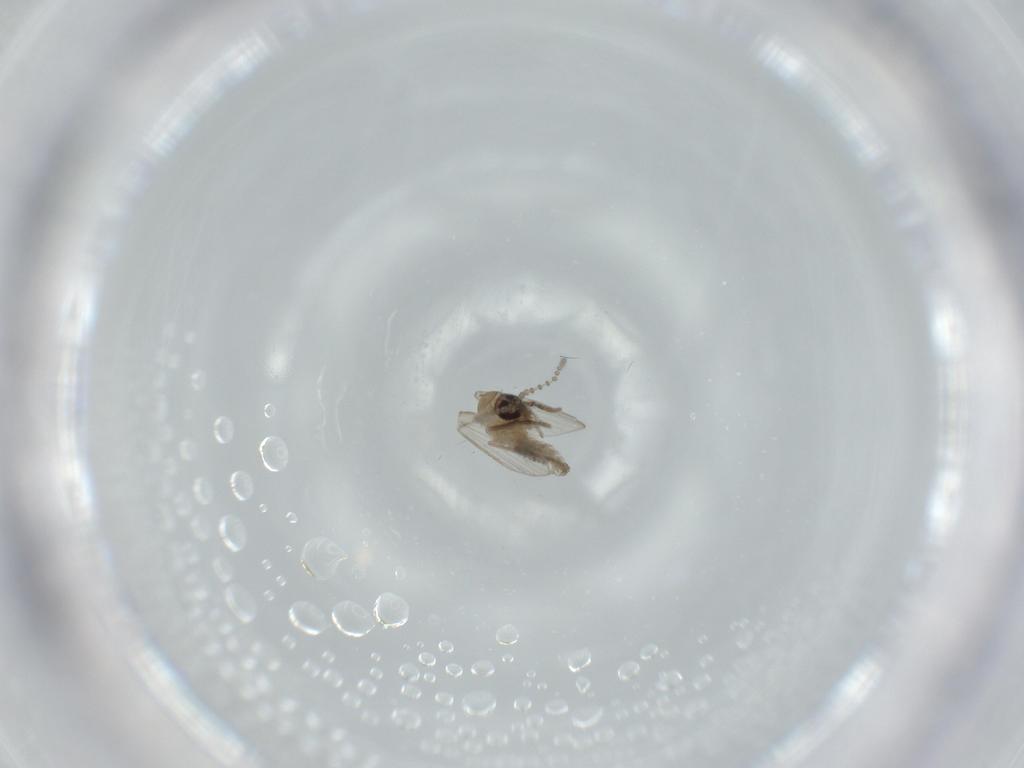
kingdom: Animalia
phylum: Arthropoda
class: Insecta
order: Diptera
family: Psychodidae
